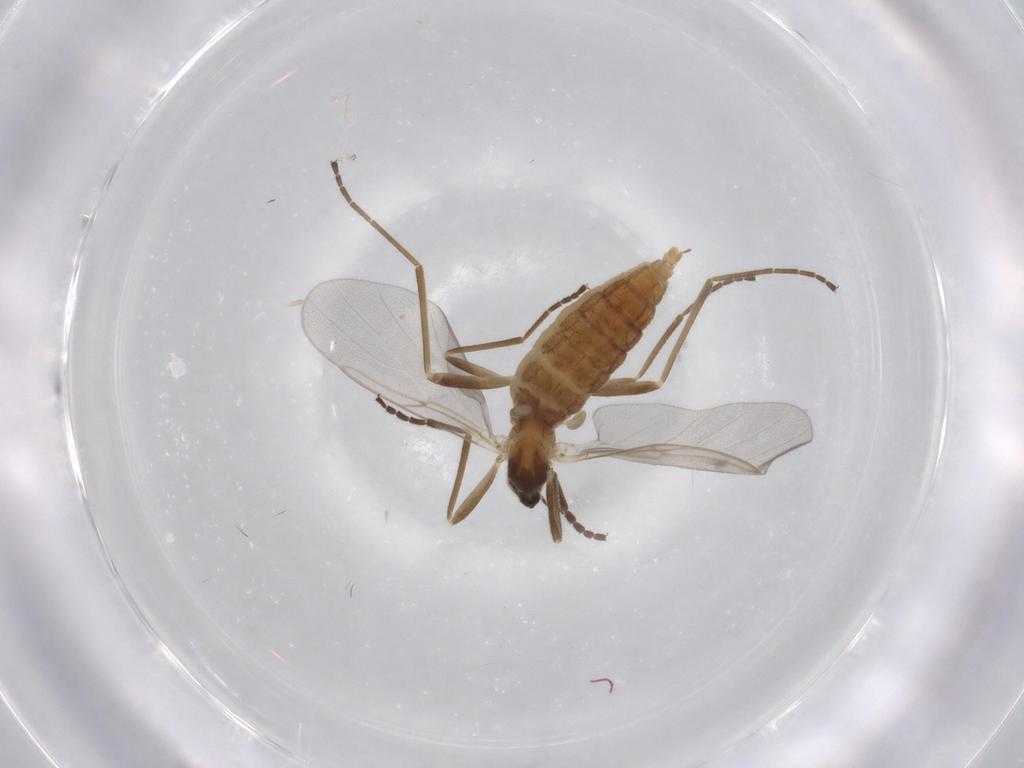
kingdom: Animalia
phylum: Arthropoda
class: Insecta
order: Diptera
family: Cecidomyiidae
